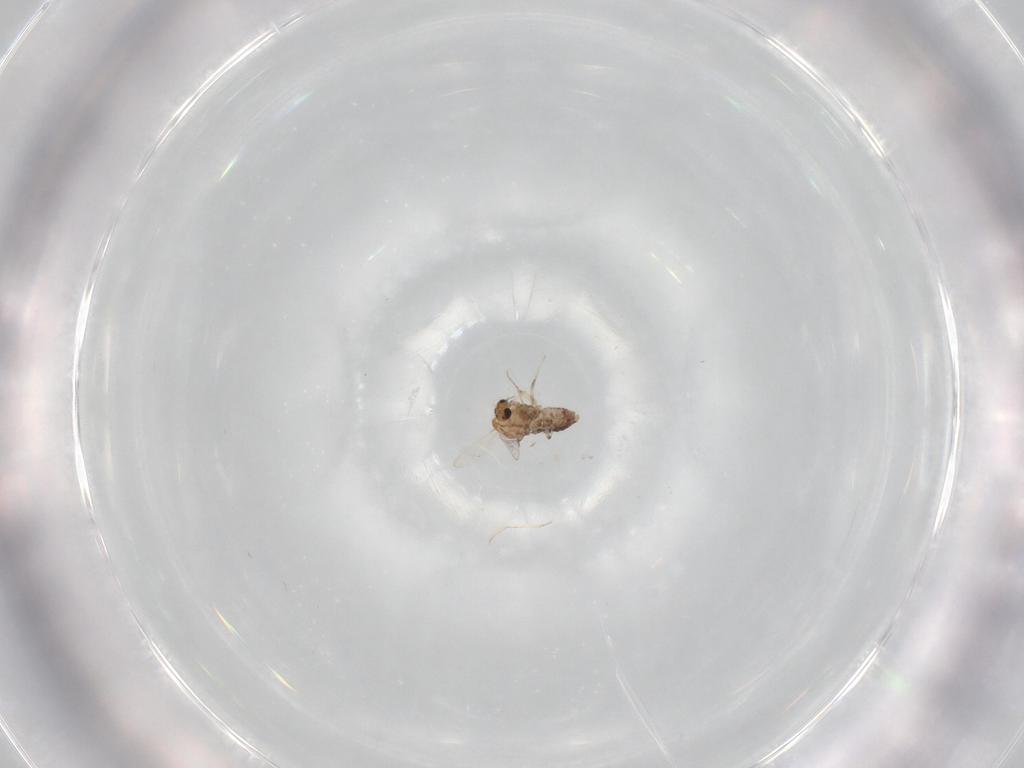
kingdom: Animalia
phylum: Arthropoda
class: Insecta
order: Diptera
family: Chironomidae
